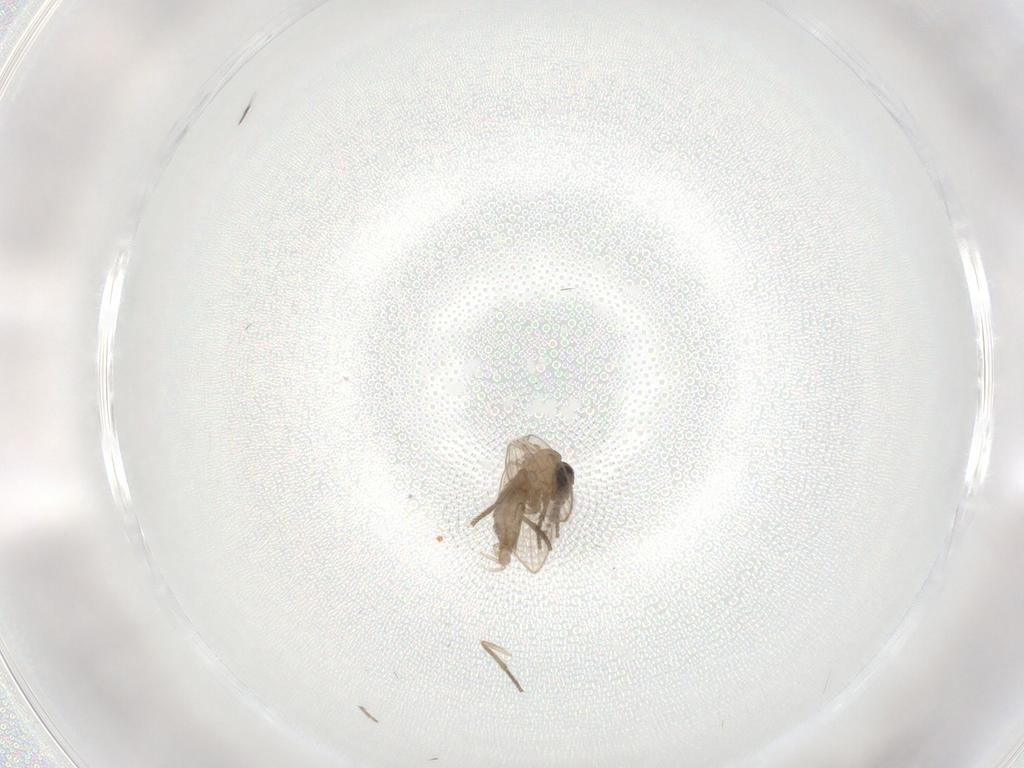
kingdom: Animalia
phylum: Arthropoda
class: Insecta
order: Diptera
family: Psychodidae
